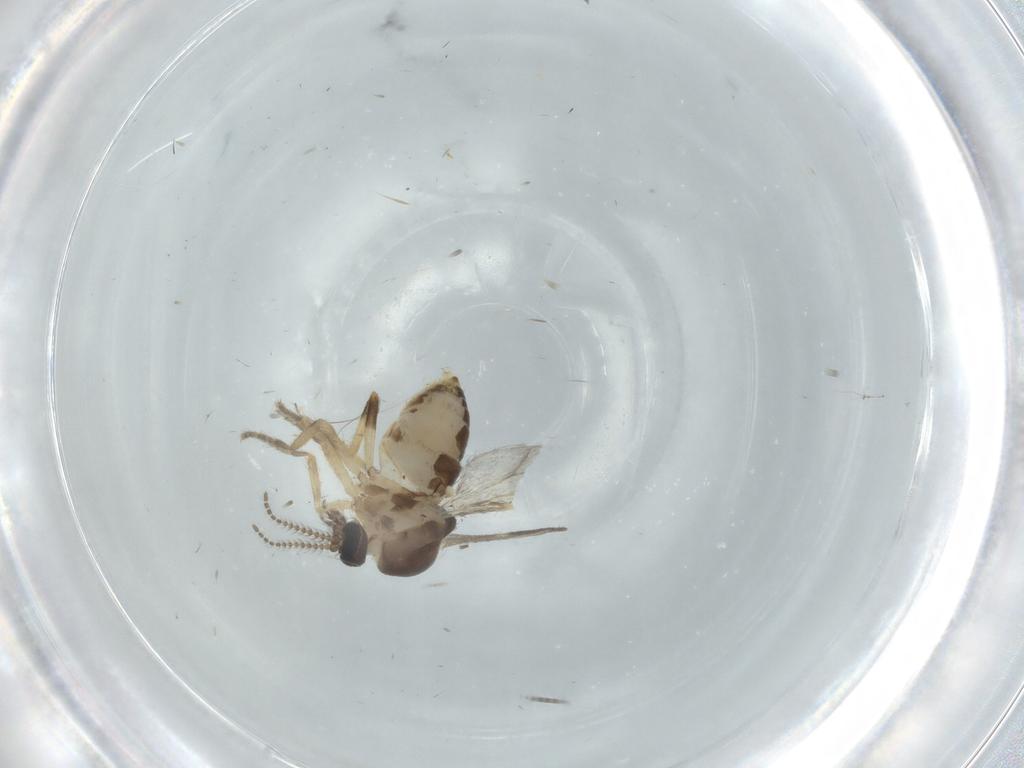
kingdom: Animalia
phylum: Arthropoda
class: Insecta
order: Diptera
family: Ceratopogonidae
